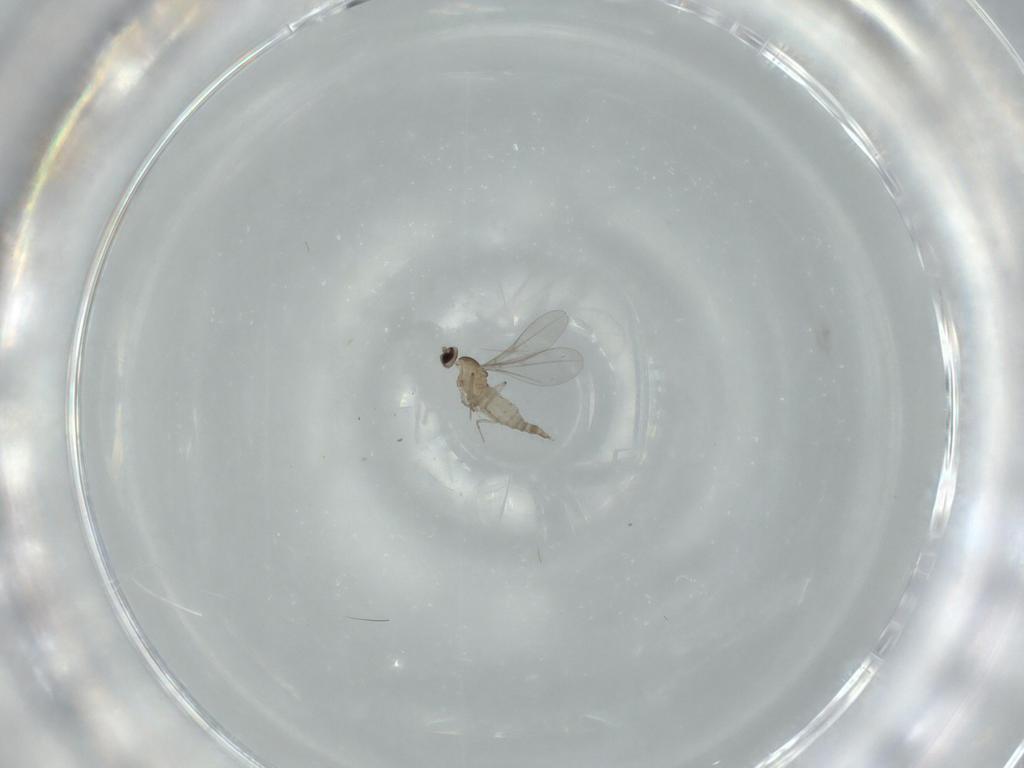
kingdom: Animalia
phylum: Arthropoda
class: Insecta
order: Diptera
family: Cecidomyiidae
